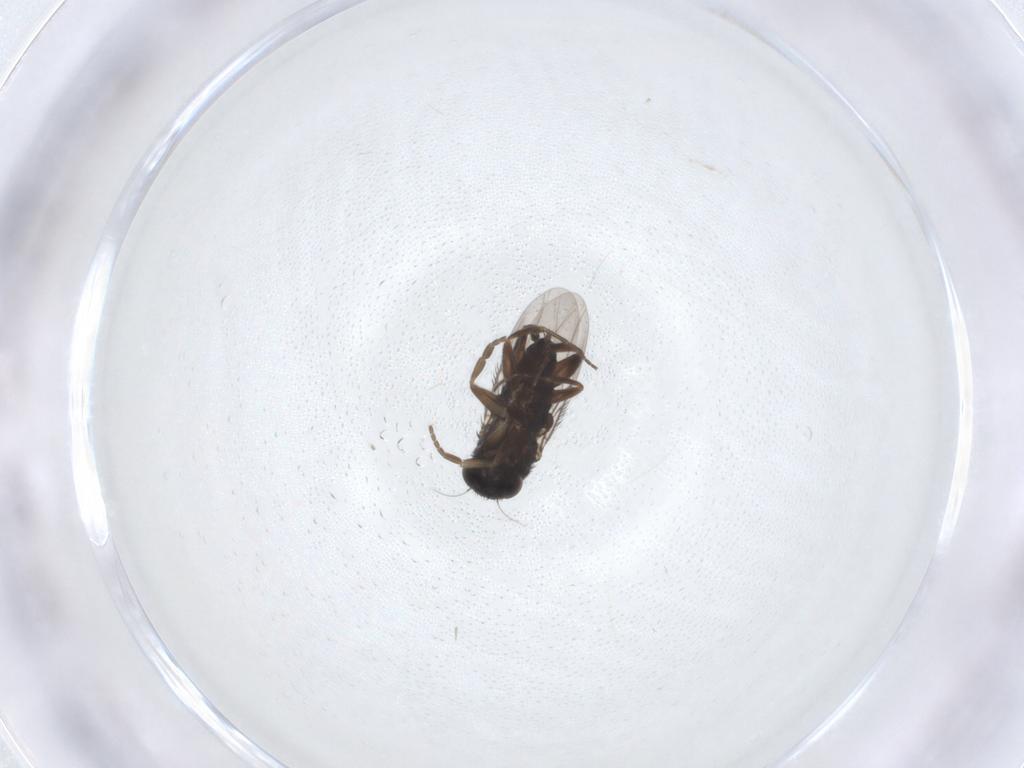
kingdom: Animalia
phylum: Arthropoda
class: Insecta
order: Diptera
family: Phoridae
